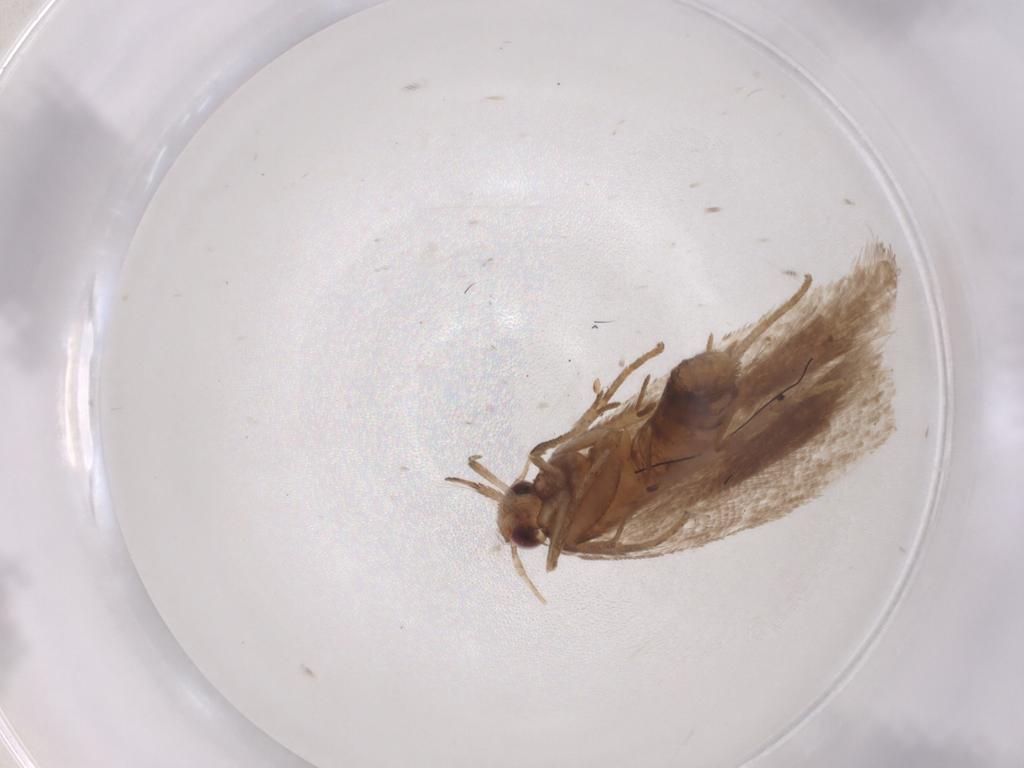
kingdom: Animalia
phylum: Arthropoda
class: Insecta
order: Lepidoptera
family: Gelechiidae
